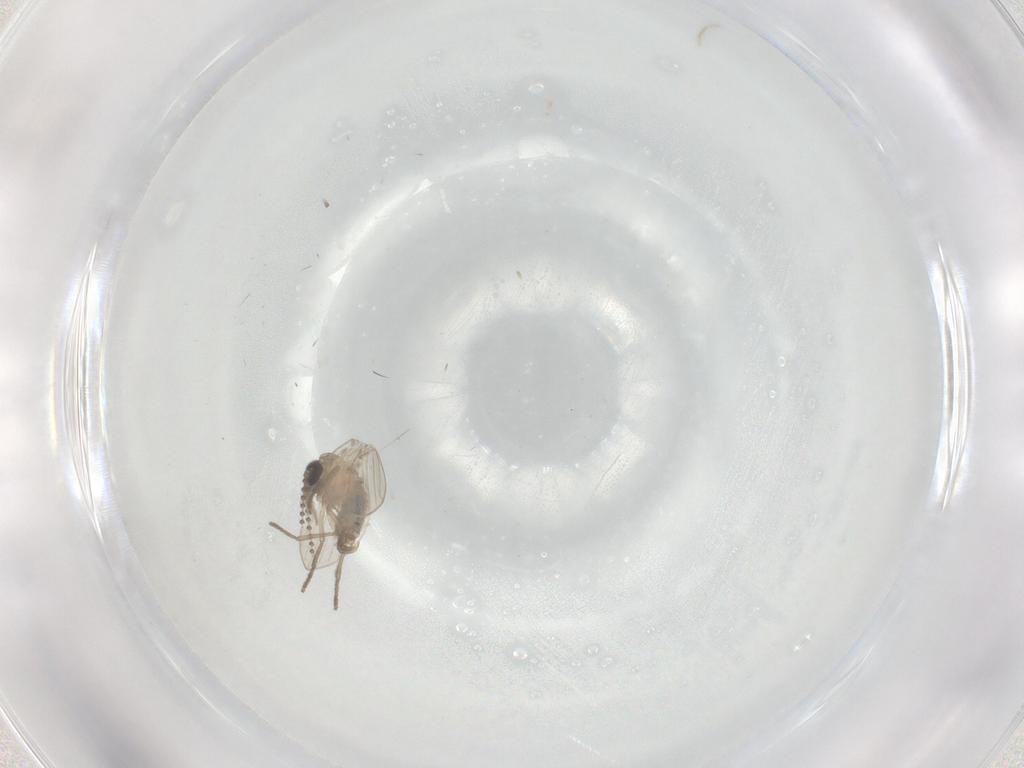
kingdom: Animalia
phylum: Arthropoda
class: Insecta
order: Diptera
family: Psychodidae
